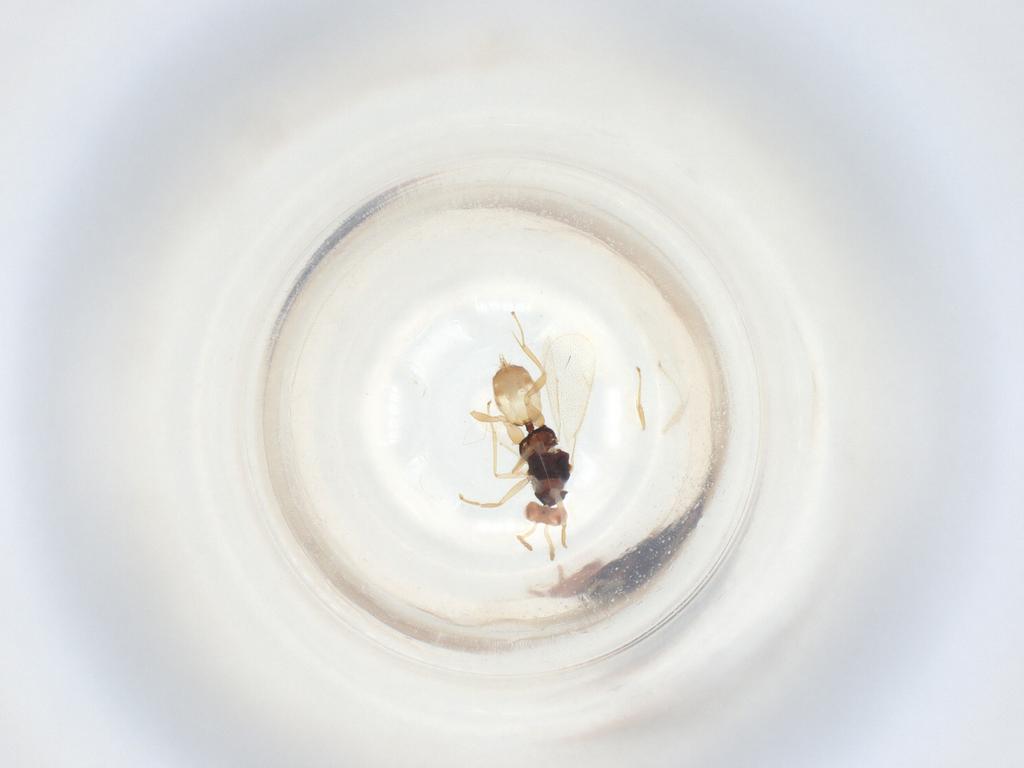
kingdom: Animalia
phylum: Arthropoda
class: Insecta
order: Hymenoptera
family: Eulophidae
